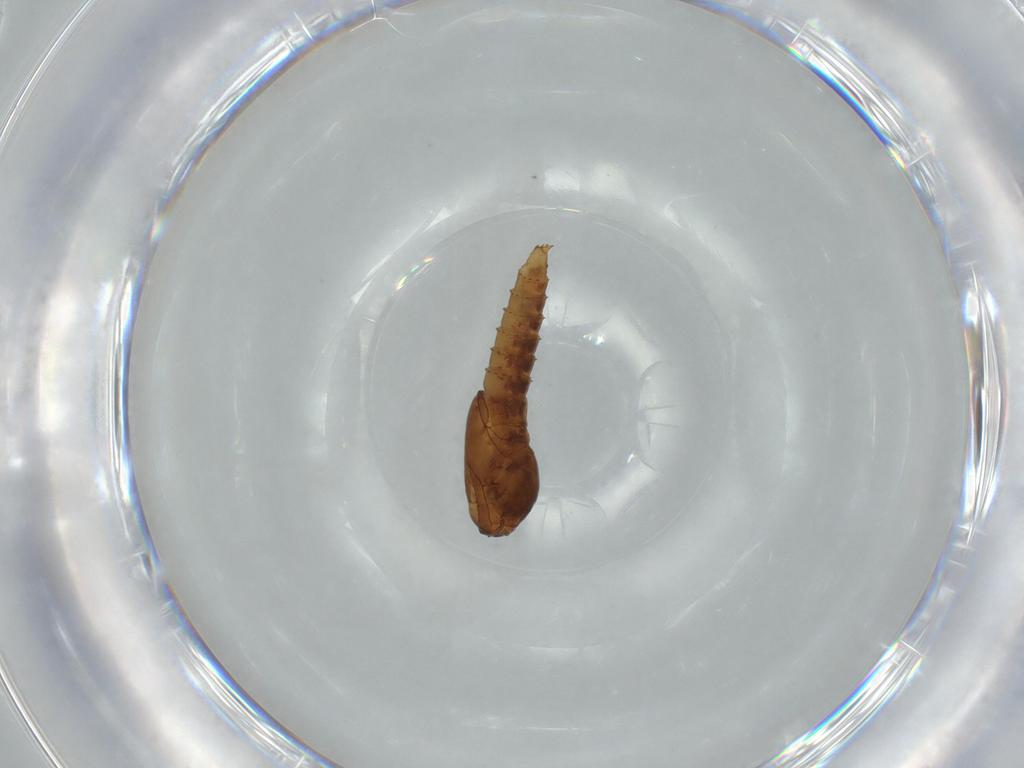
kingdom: Animalia
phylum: Arthropoda
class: Insecta
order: Diptera
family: Ceratopogonidae
